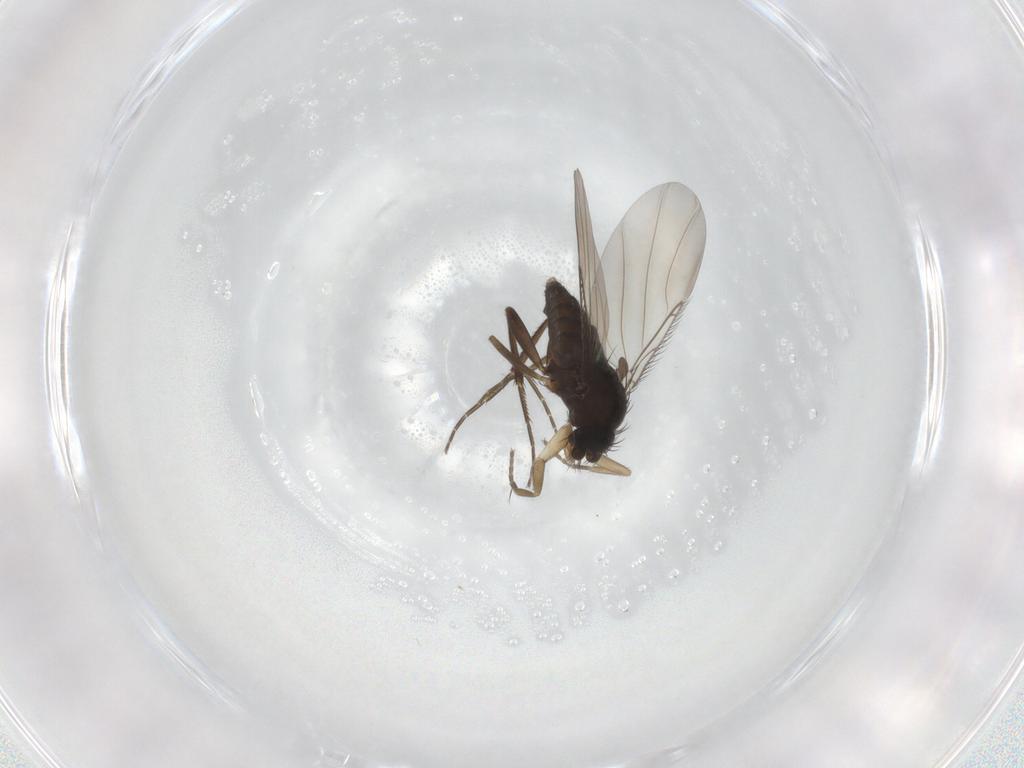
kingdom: Animalia
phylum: Arthropoda
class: Insecta
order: Diptera
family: Phoridae
